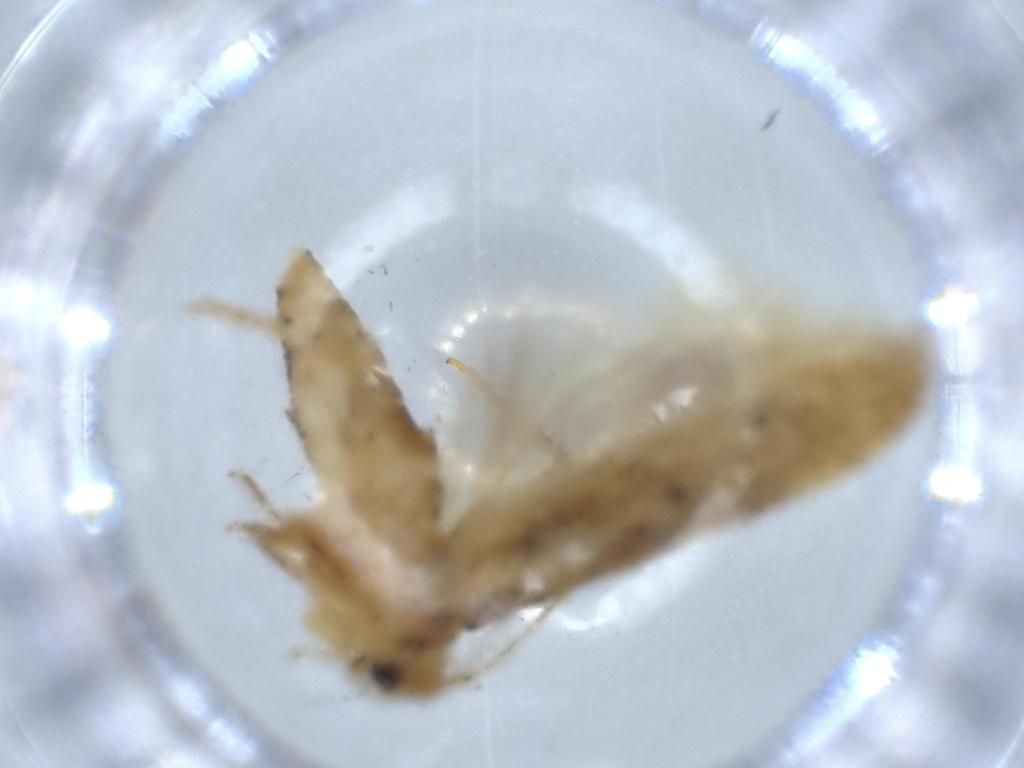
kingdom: Animalia
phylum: Arthropoda
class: Insecta
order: Lepidoptera
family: Gelechiidae
